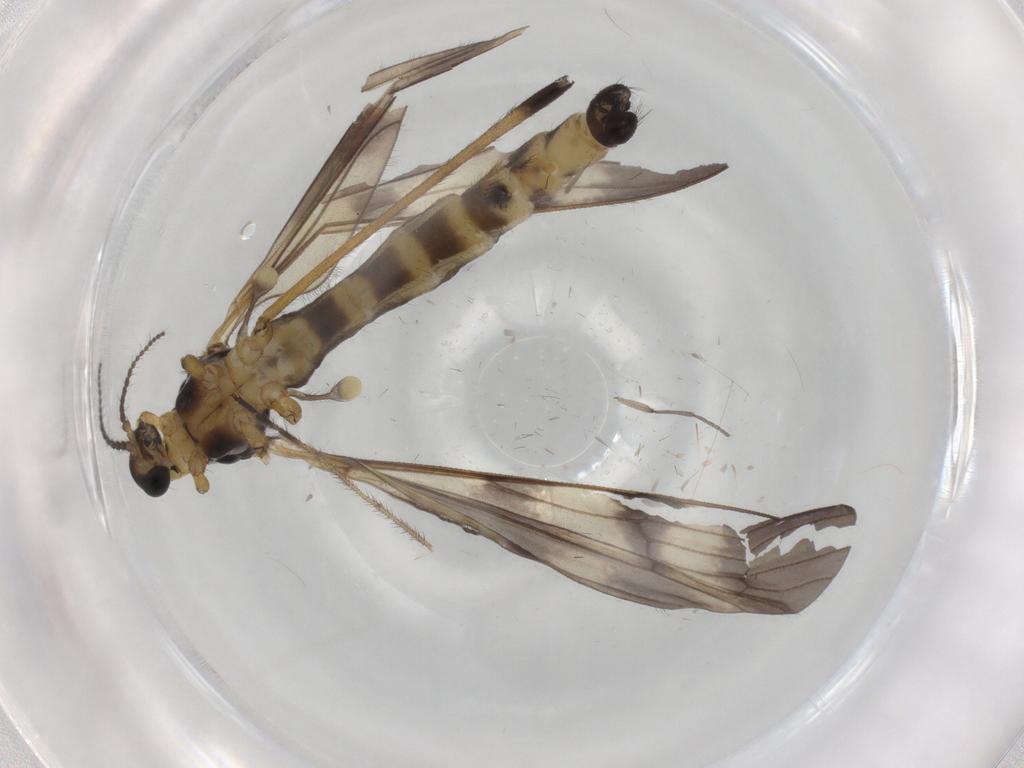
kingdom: Animalia
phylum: Arthropoda
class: Insecta
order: Diptera
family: Limoniidae
